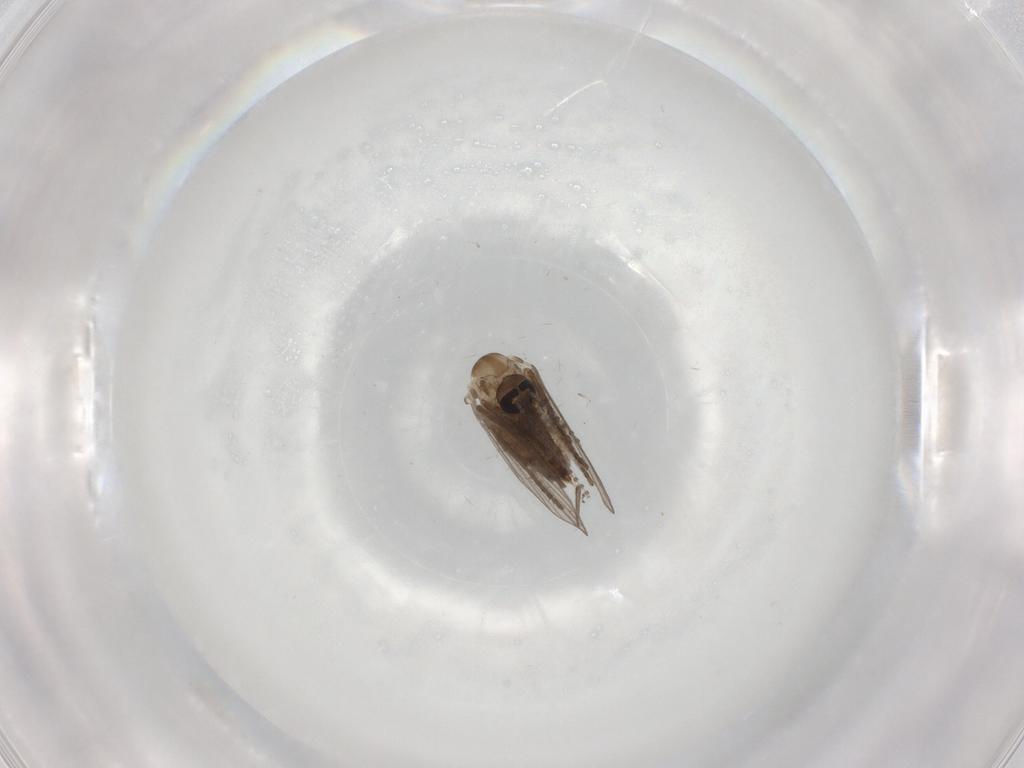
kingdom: Animalia
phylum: Arthropoda
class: Insecta
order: Diptera
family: Psychodidae
